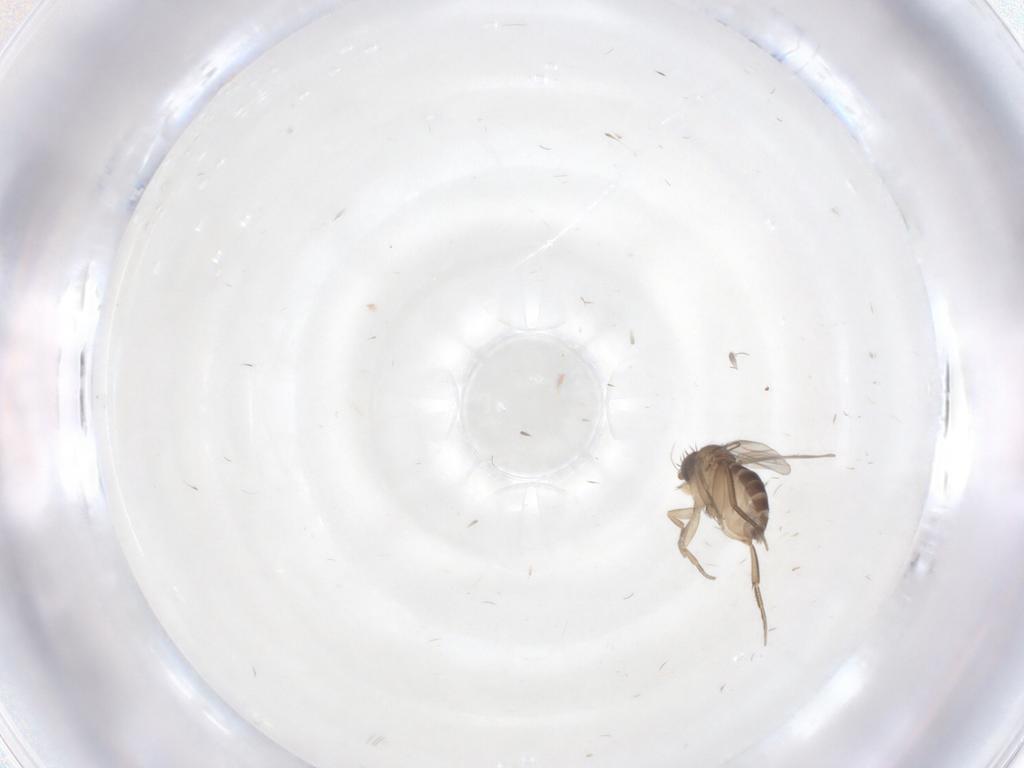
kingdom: Animalia
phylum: Arthropoda
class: Insecta
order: Diptera
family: Phoridae
